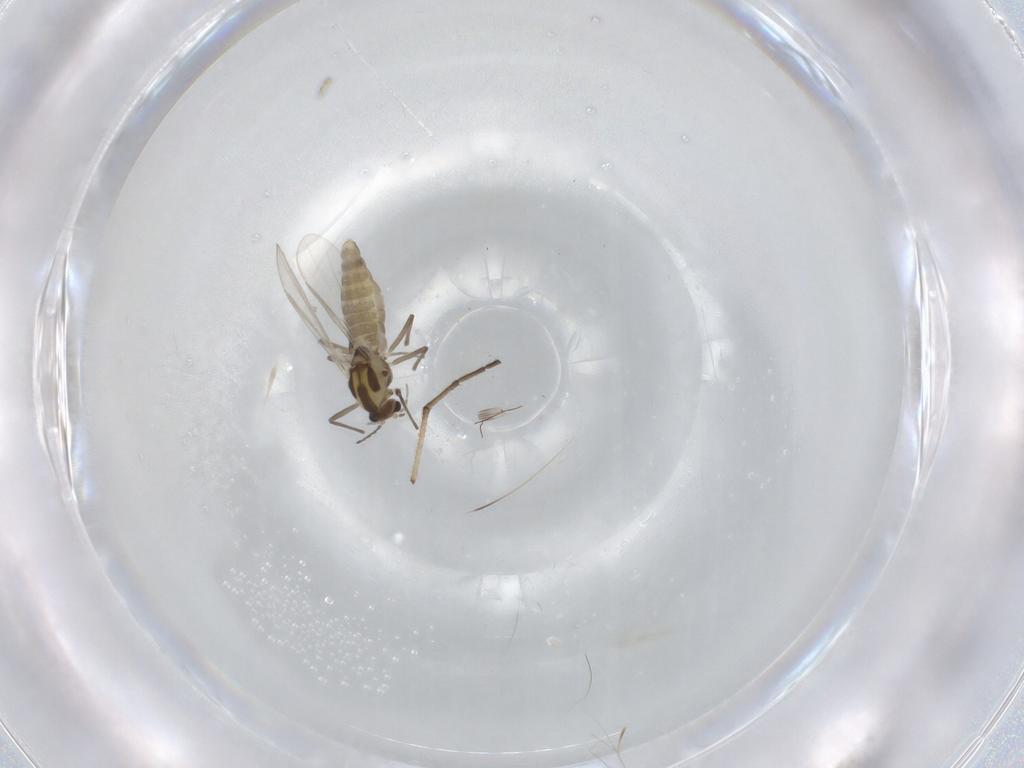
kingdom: Animalia
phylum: Arthropoda
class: Insecta
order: Diptera
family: Chironomidae
